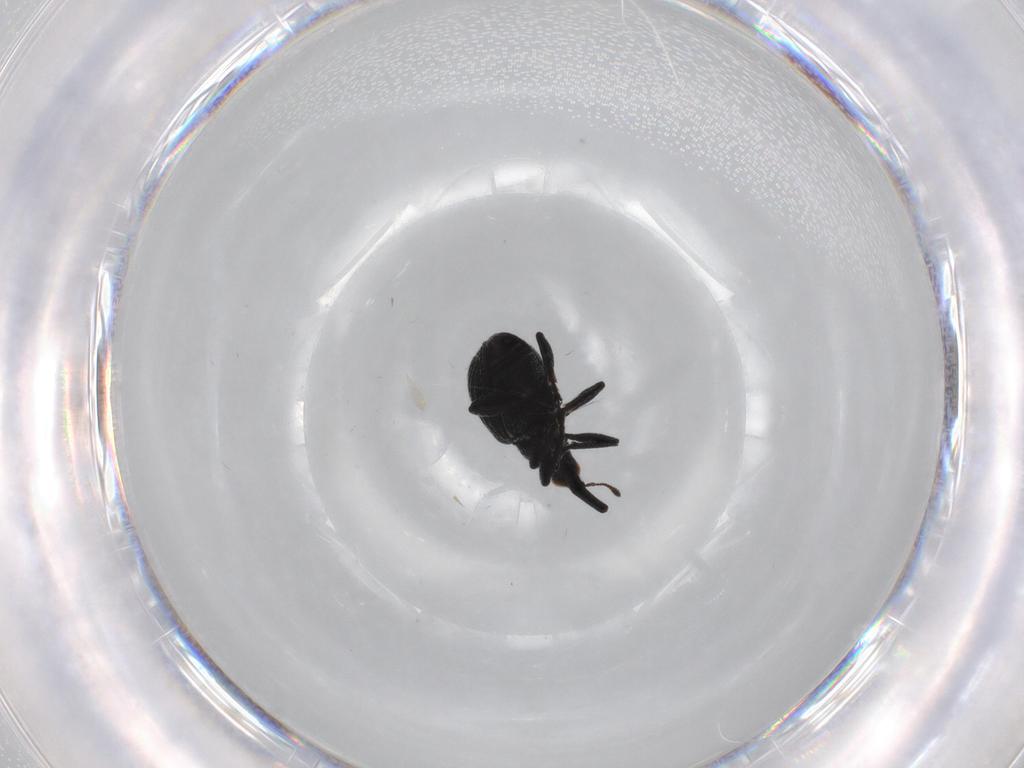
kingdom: Animalia
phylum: Arthropoda
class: Insecta
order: Coleoptera
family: Brentidae
